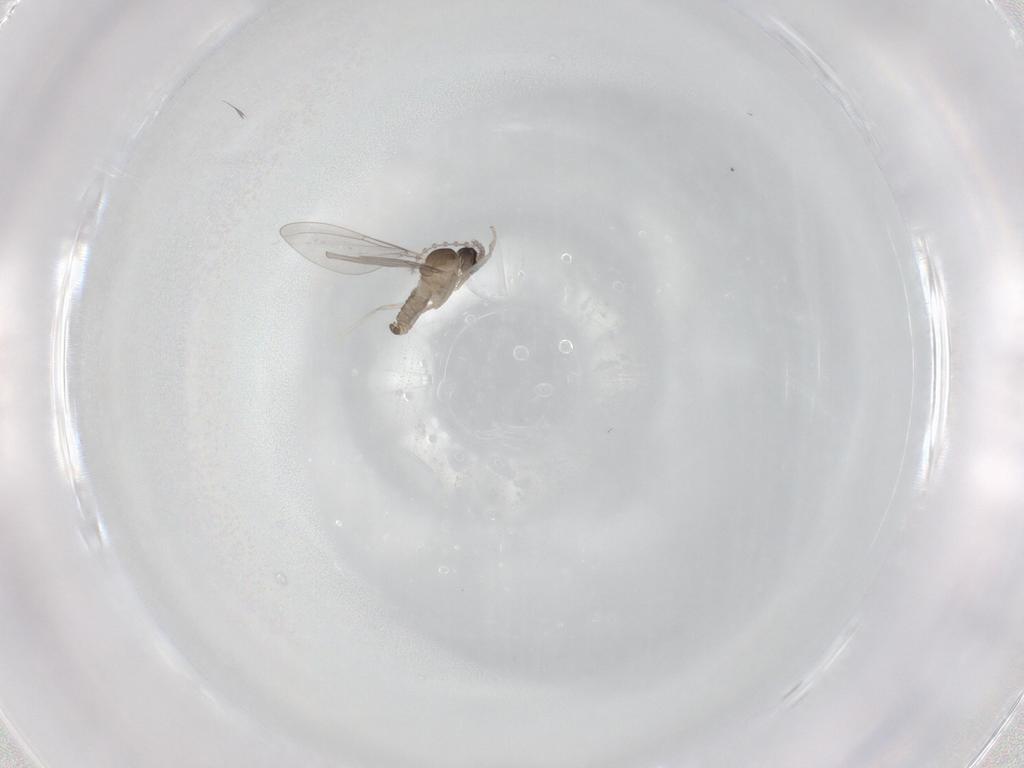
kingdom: Animalia
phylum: Arthropoda
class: Insecta
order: Diptera
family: Cecidomyiidae
